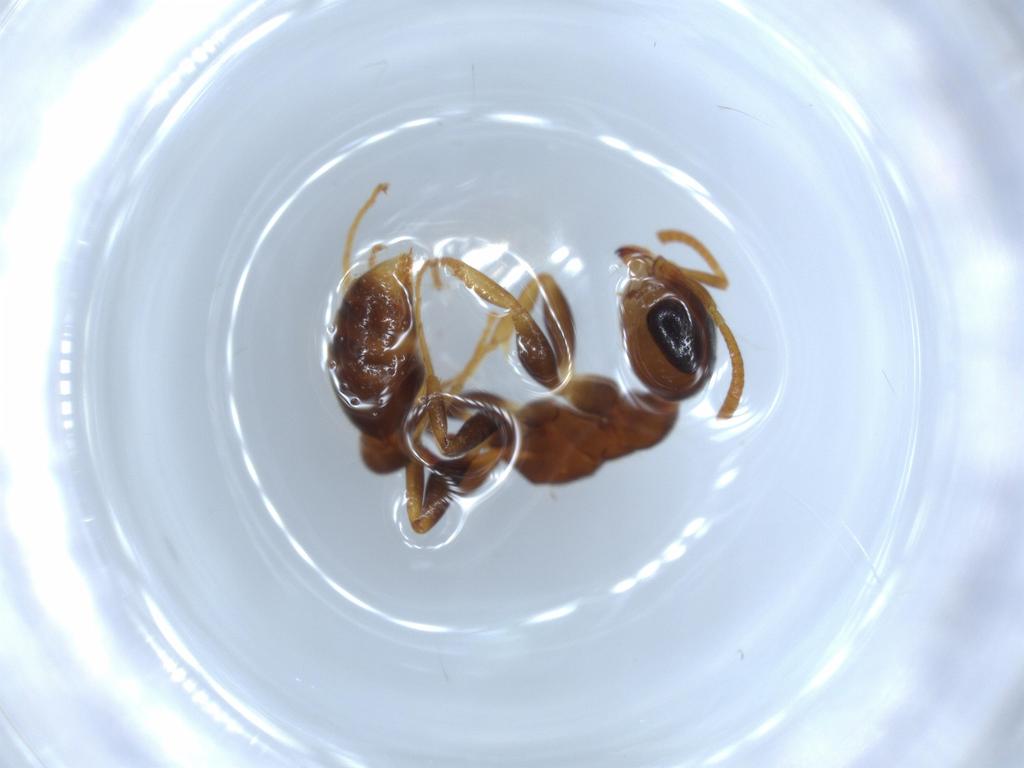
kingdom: Animalia
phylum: Arthropoda
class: Insecta
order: Hymenoptera
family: Formicidae
